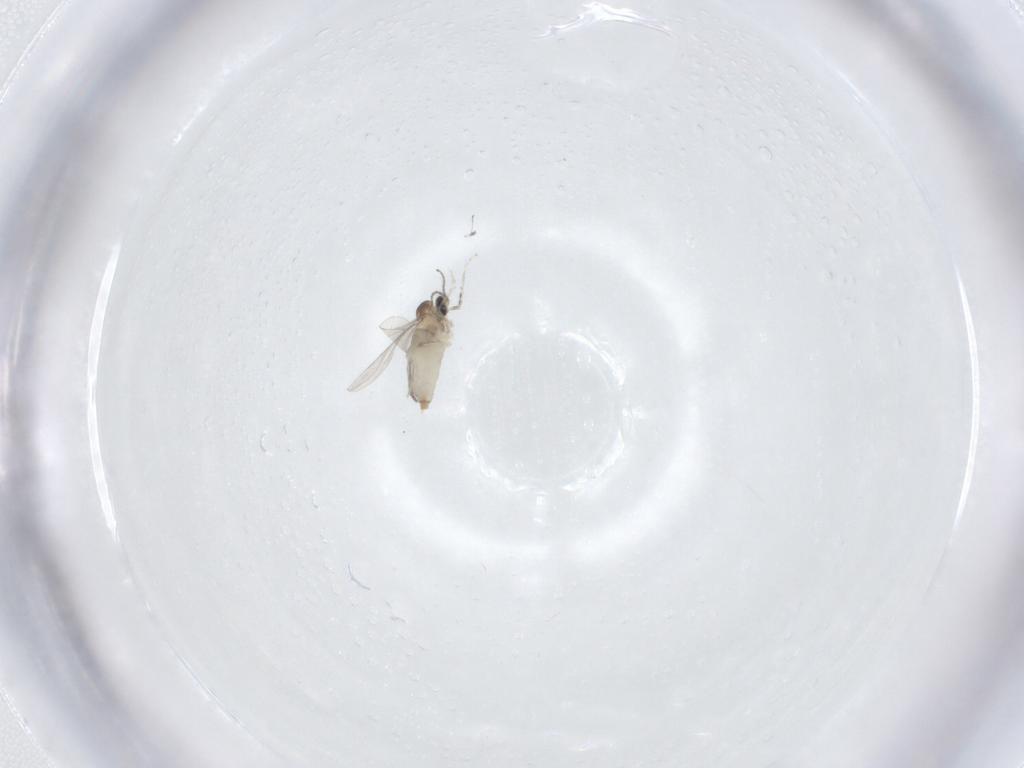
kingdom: Animalia
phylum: Arthropoda
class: Insecta
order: Diptera
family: Cecidomyiidae
